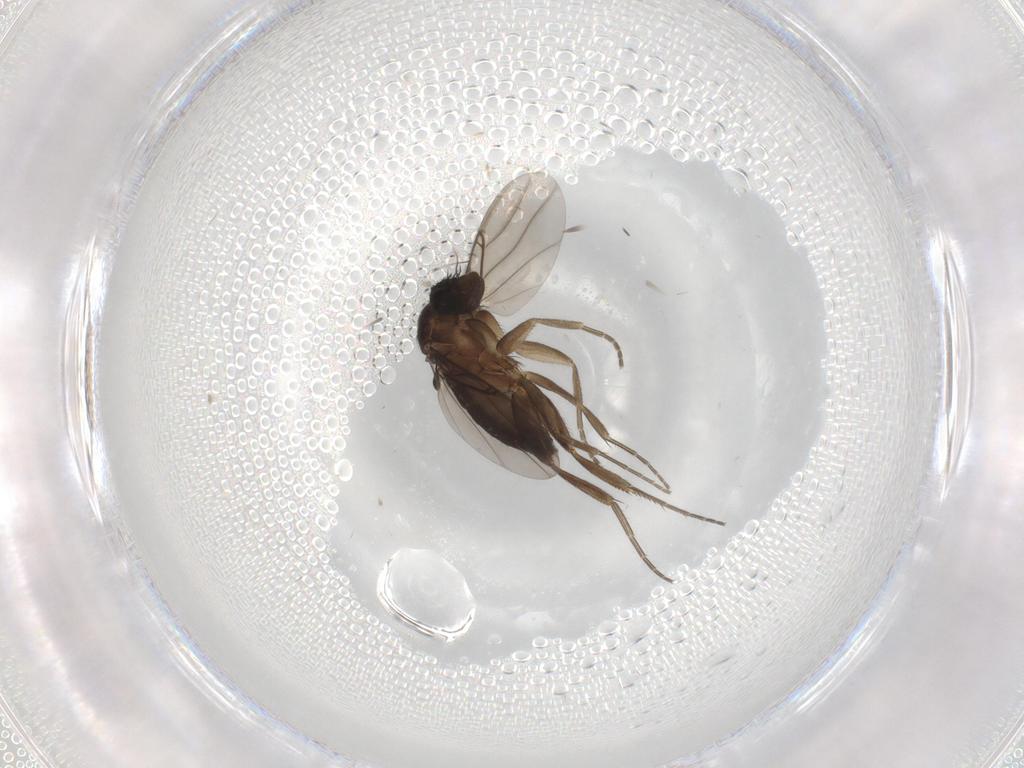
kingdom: Animalia
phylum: Arthropoda
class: Insecta
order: Diptera
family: Phoridae
